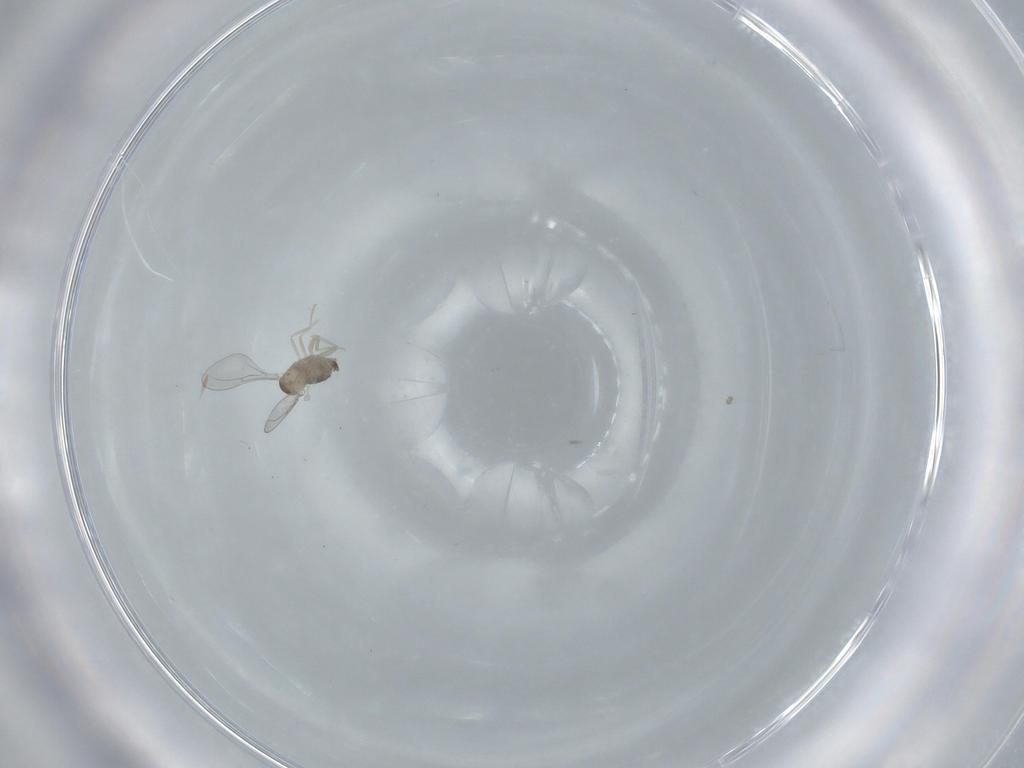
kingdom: Animalia
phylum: Arthropoda
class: Insecta
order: Diptera
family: Cecidomyiidae
